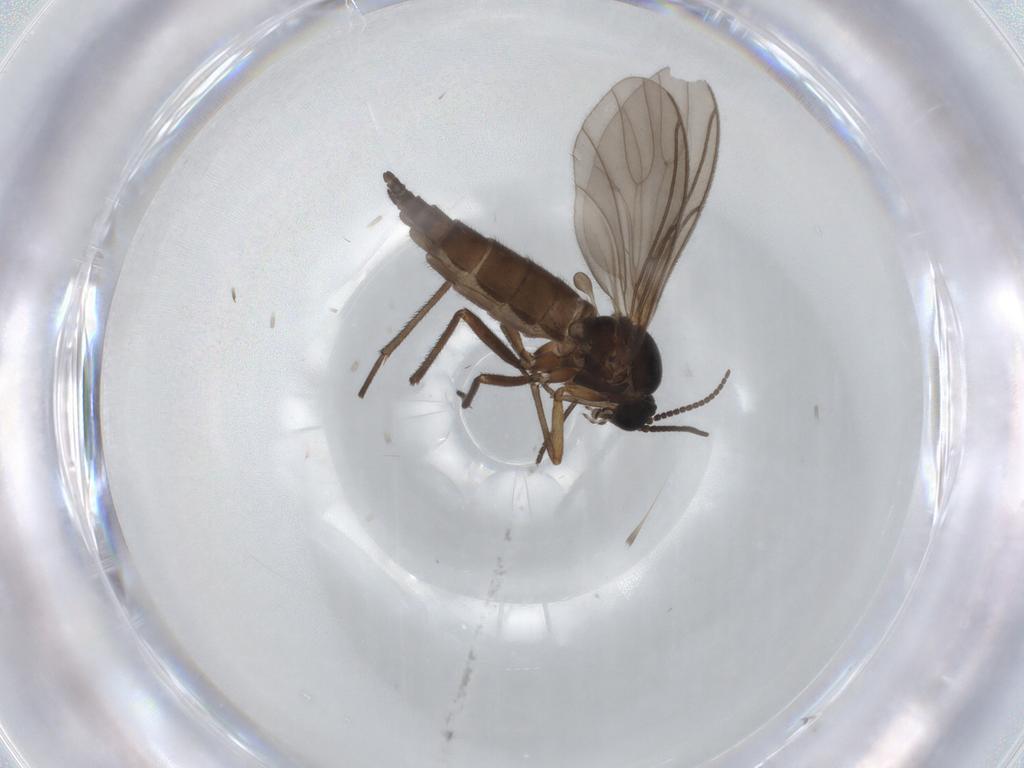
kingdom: Animalia
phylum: Arthropoda
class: Insecta
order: Diptera
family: Sciaridae
